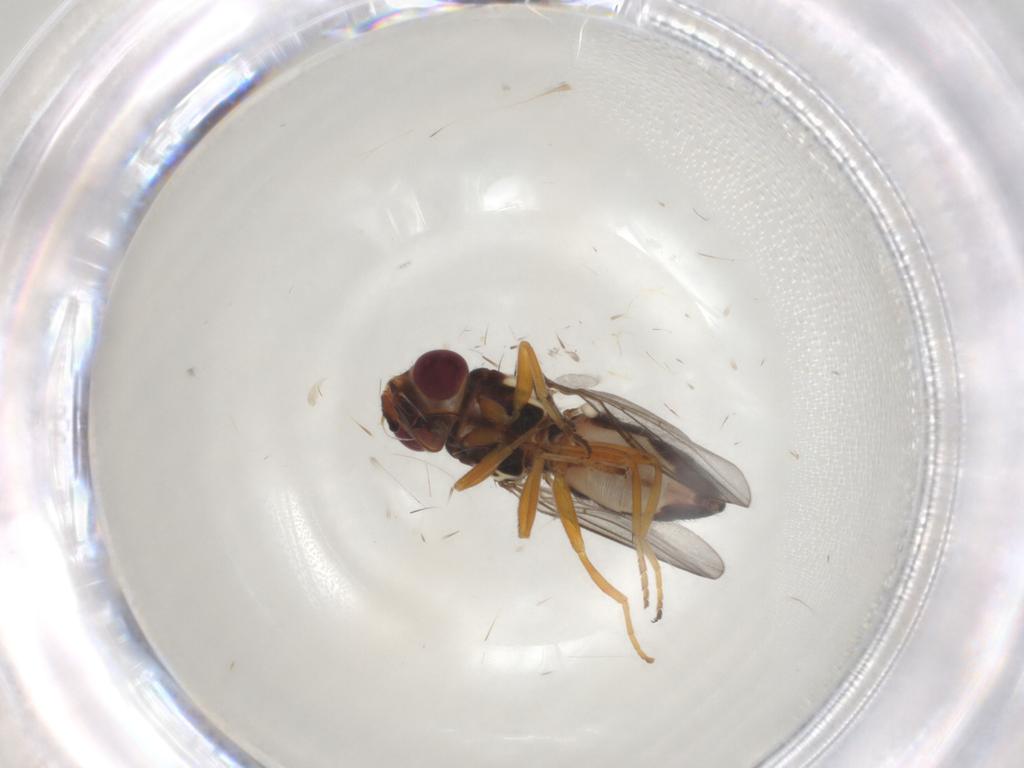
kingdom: Animalia
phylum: Arthropoda
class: Insecta
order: Diptera
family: Chloropidae
